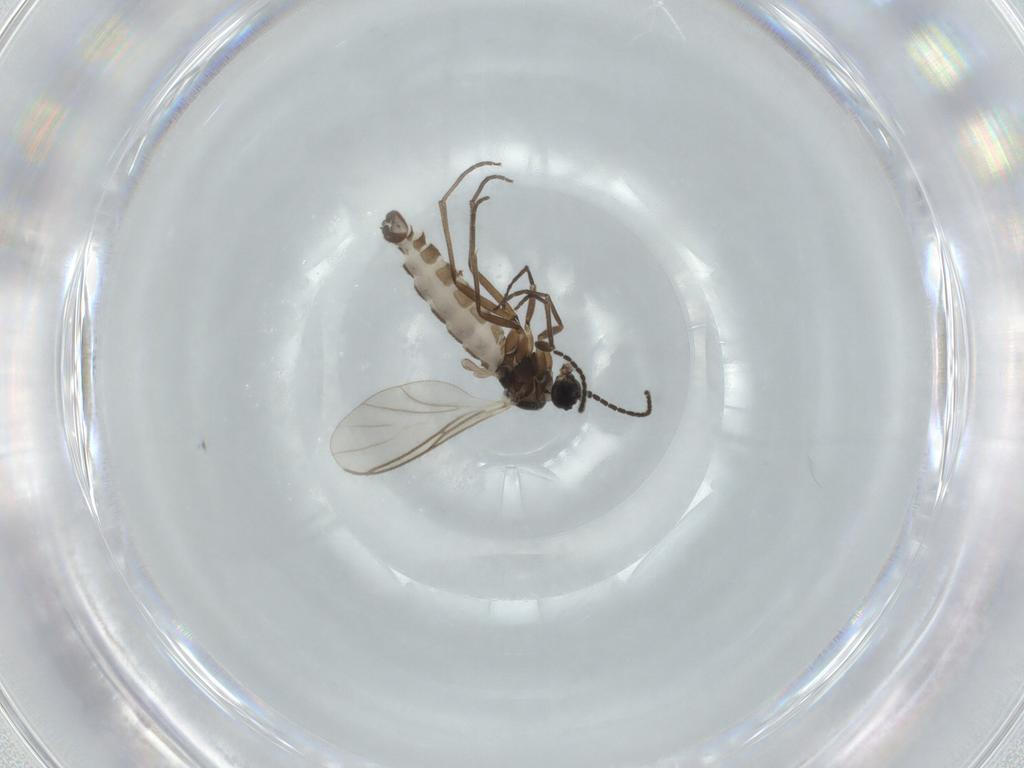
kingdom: Animalia
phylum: Arthropoda
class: Insecta
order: Diptera
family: Sciaridae
